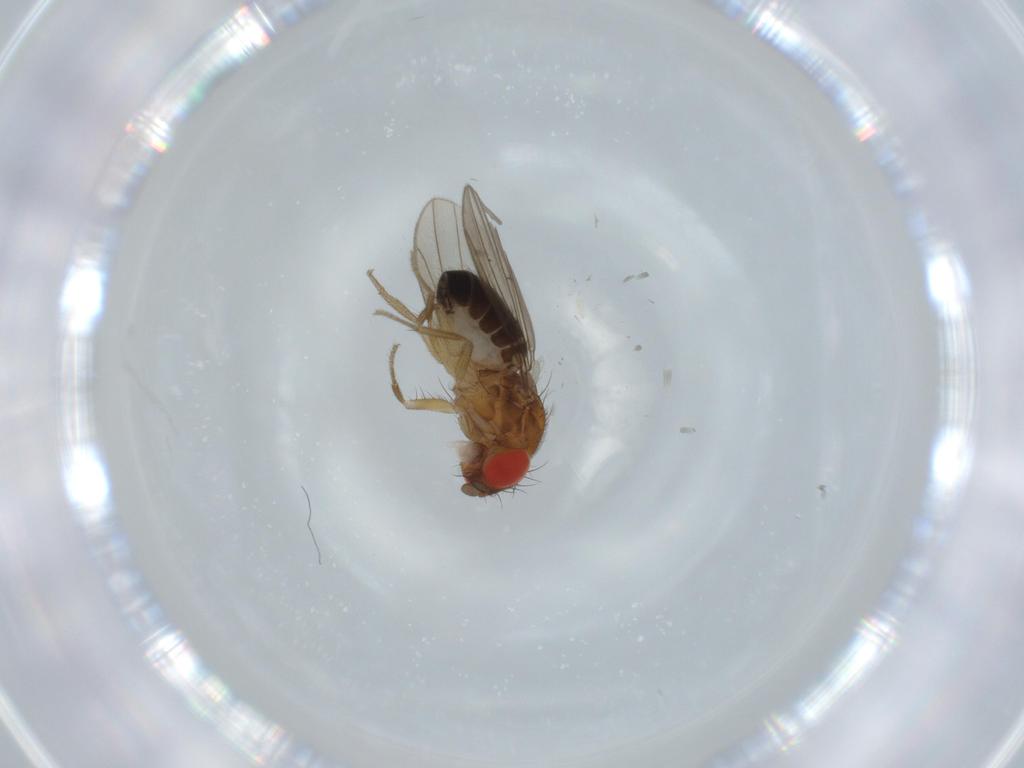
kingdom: Animalia
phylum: Arthropoda
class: Insecta
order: Diptera
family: Drosophilidae
